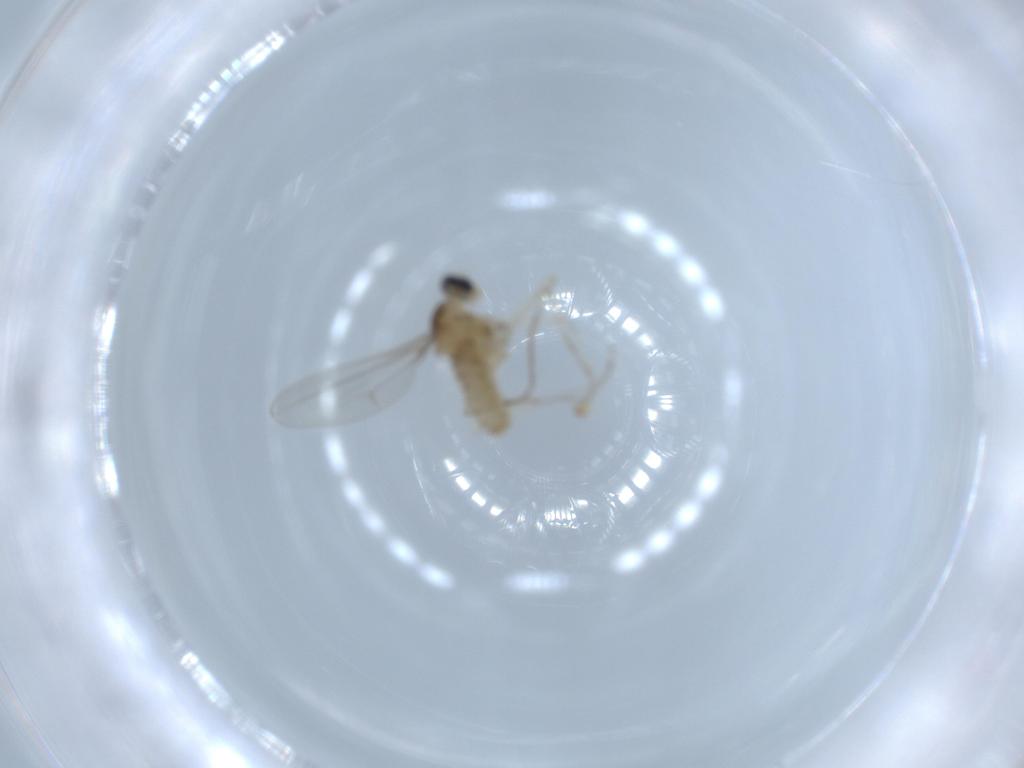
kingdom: Animalia
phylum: Arthropoda
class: Insecta
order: Diptera
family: Cecidomyiidae
